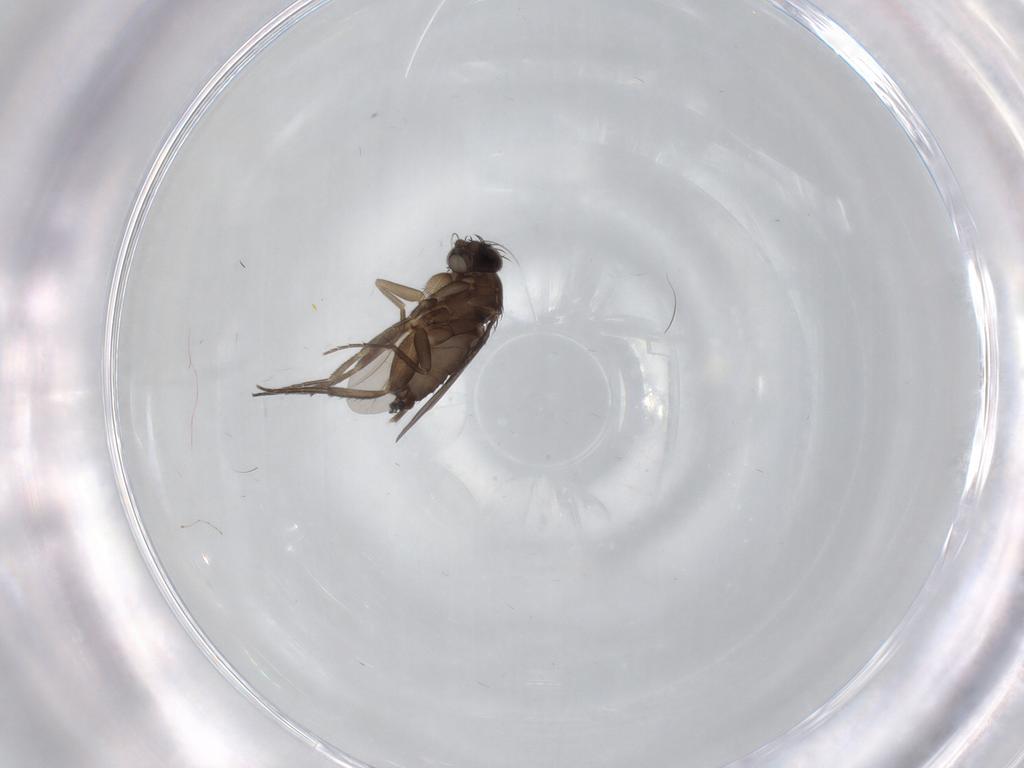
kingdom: Animalia
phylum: Arthropoda
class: Insecta
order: Diptera
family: Phoridae
